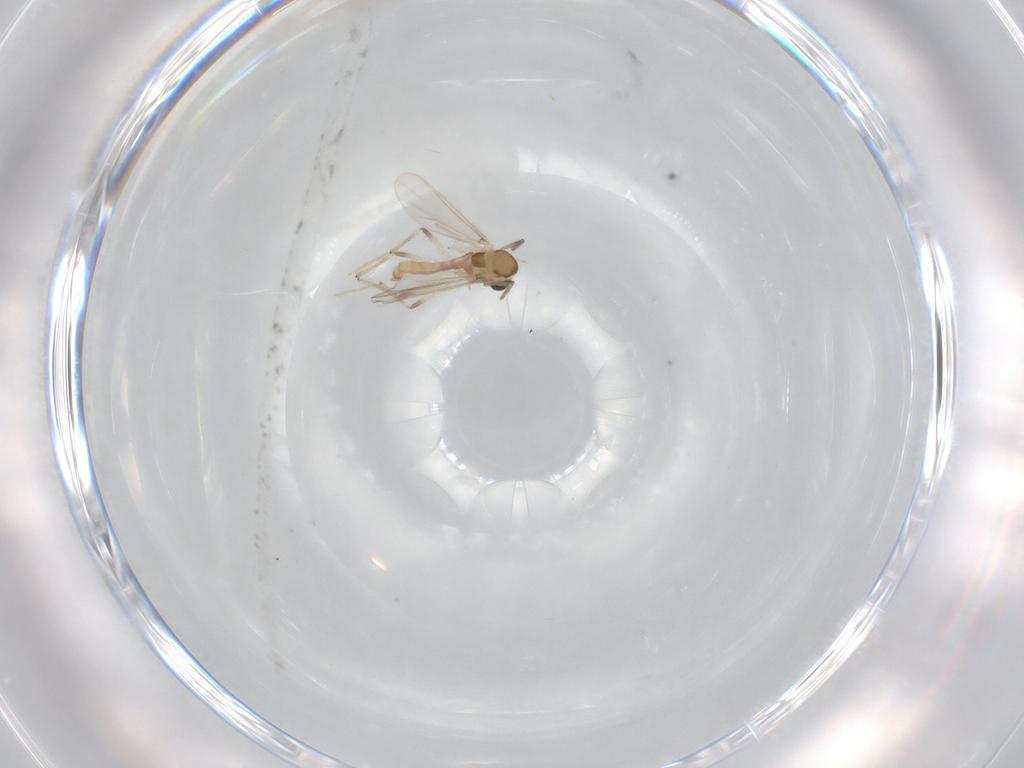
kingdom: Animalia
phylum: Arthropoda
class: Insecta
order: Diptera
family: Chironomidae
